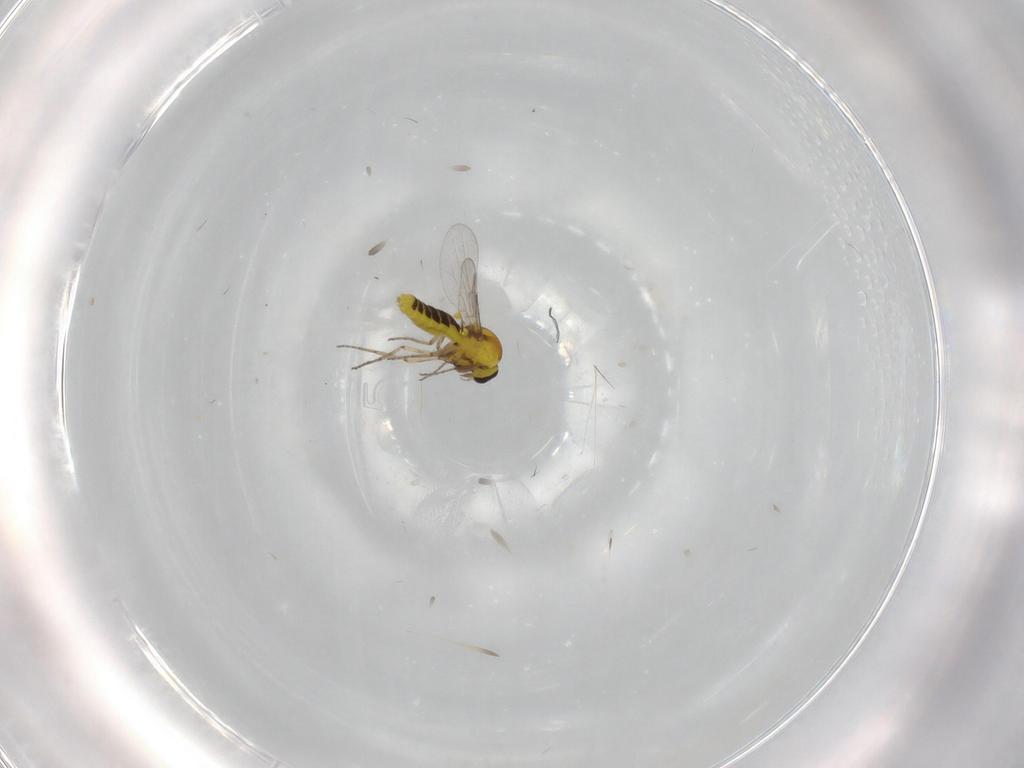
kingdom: Animalia
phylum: Arthropoda
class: Insecta
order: Diptera
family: Ceratopogonidae
